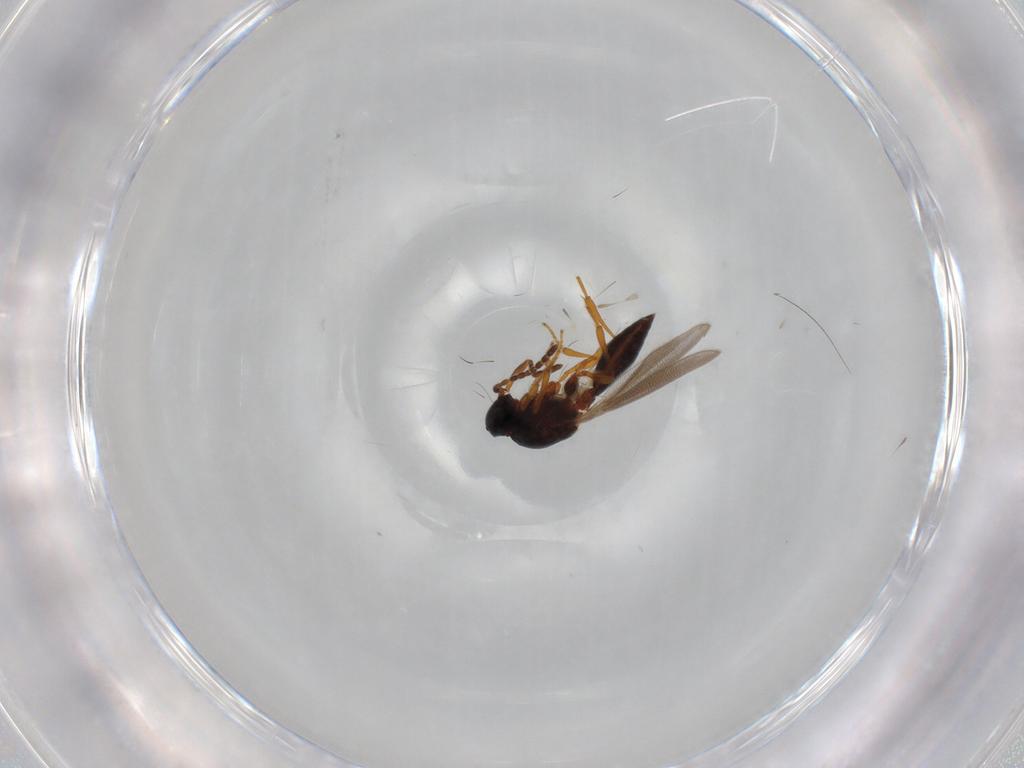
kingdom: Animalia
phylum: Arthropoda
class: Insecta
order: Hymenoptera
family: Platygastridae
